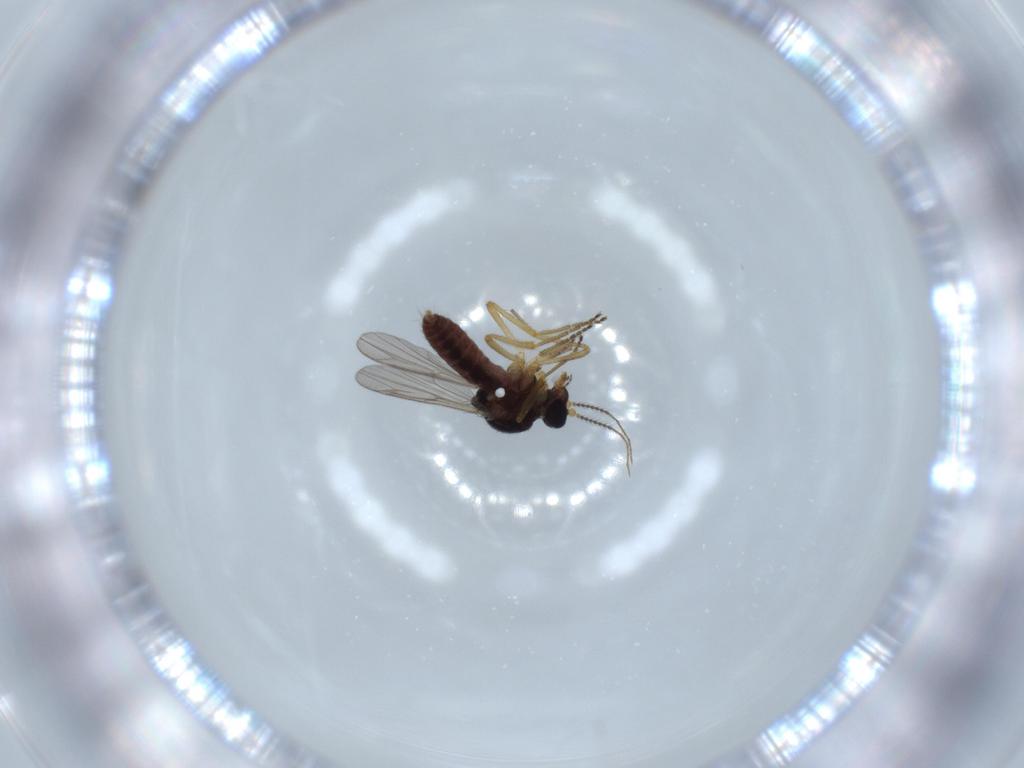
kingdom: Animalia
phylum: Arthropoda
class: Insecta
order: Diptera
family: Ceratopogonidae
